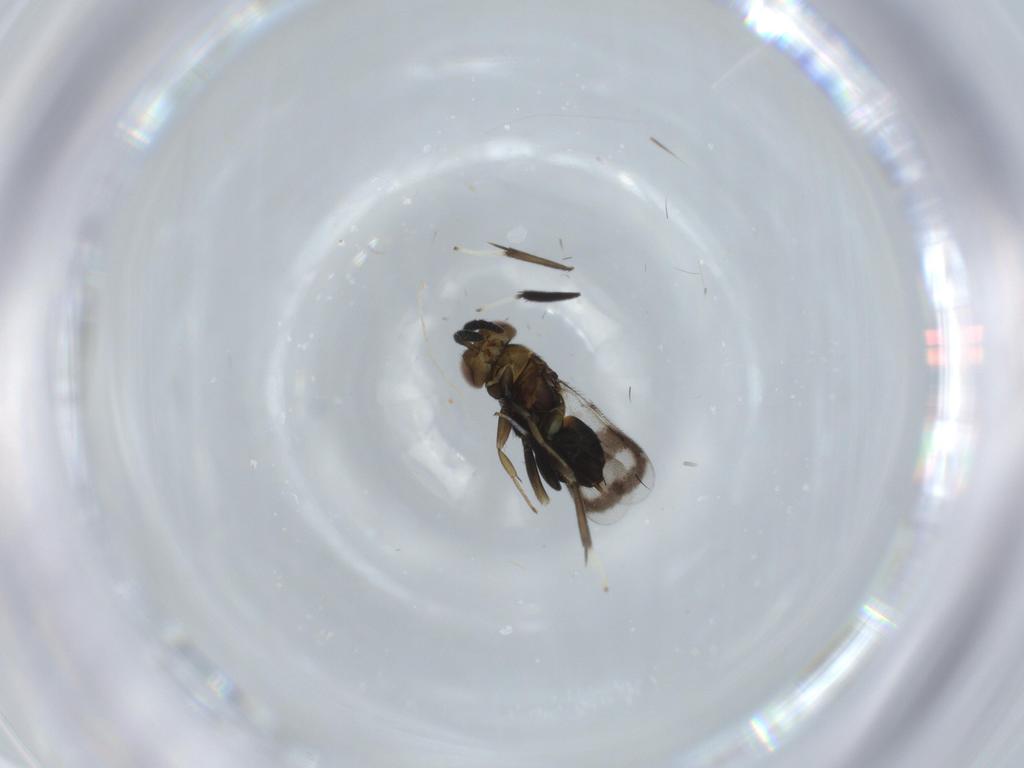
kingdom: Animalia
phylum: Arthropoda
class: Insecta
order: Hymenoptera
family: Aphelinidae
